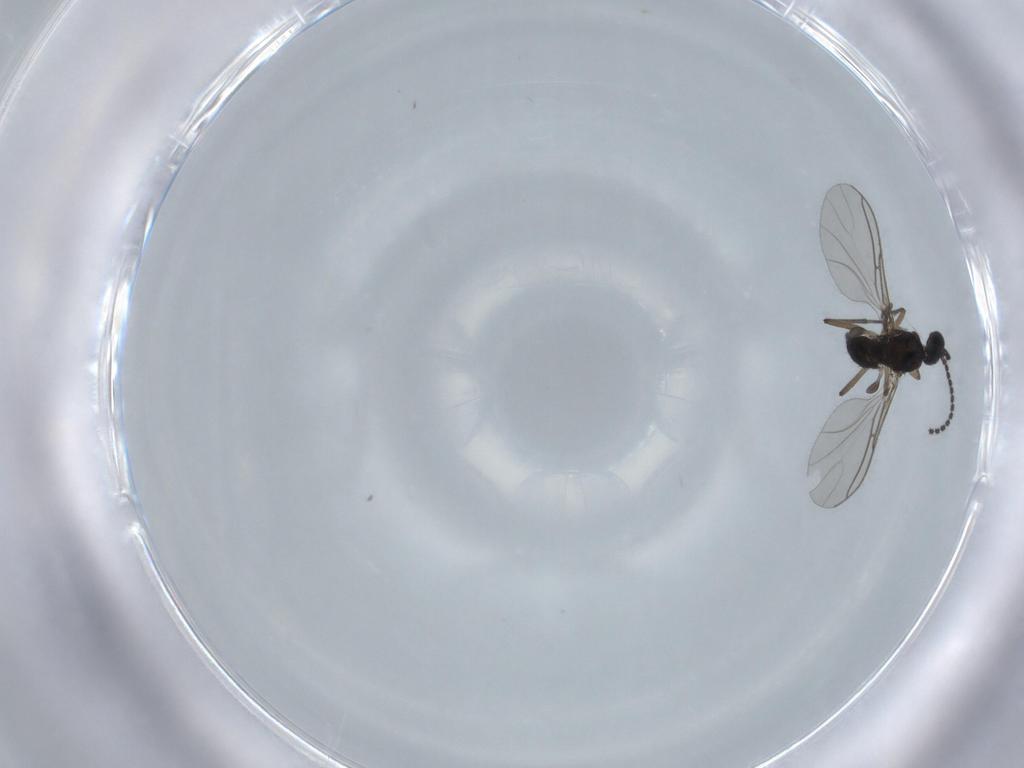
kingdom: Animalia
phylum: Arthropoda
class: Insecta
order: Diptera
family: Sciaridae
